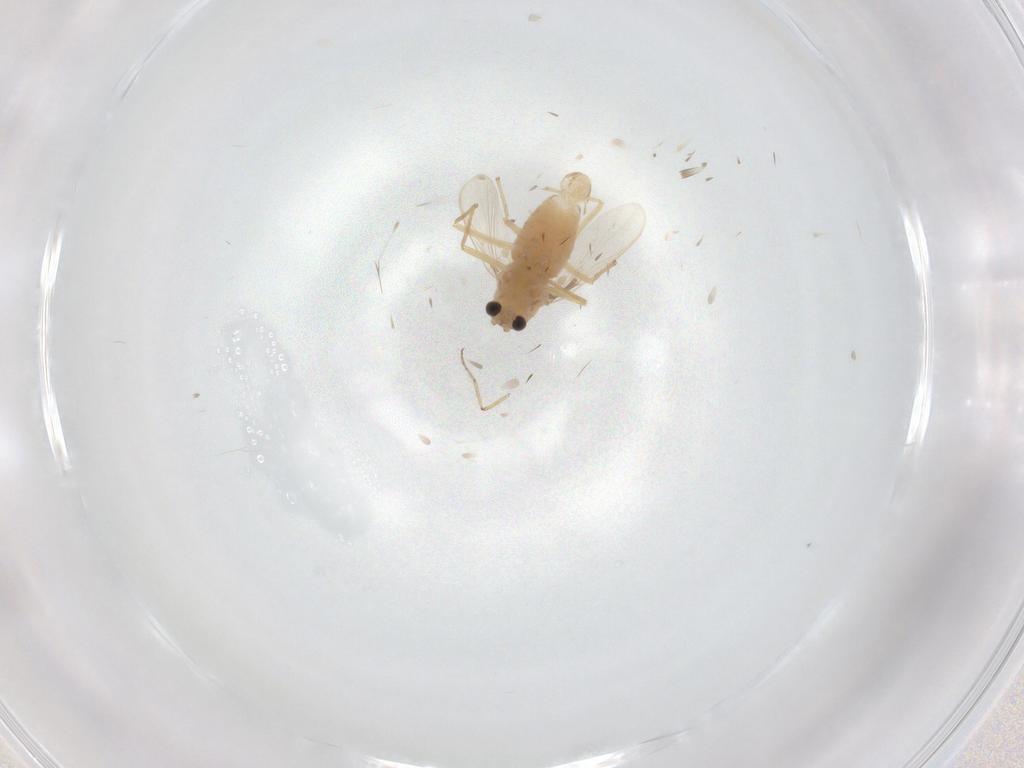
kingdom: Animalia
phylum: Arthropoda
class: Insecta
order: Diptera
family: Chironomidae
